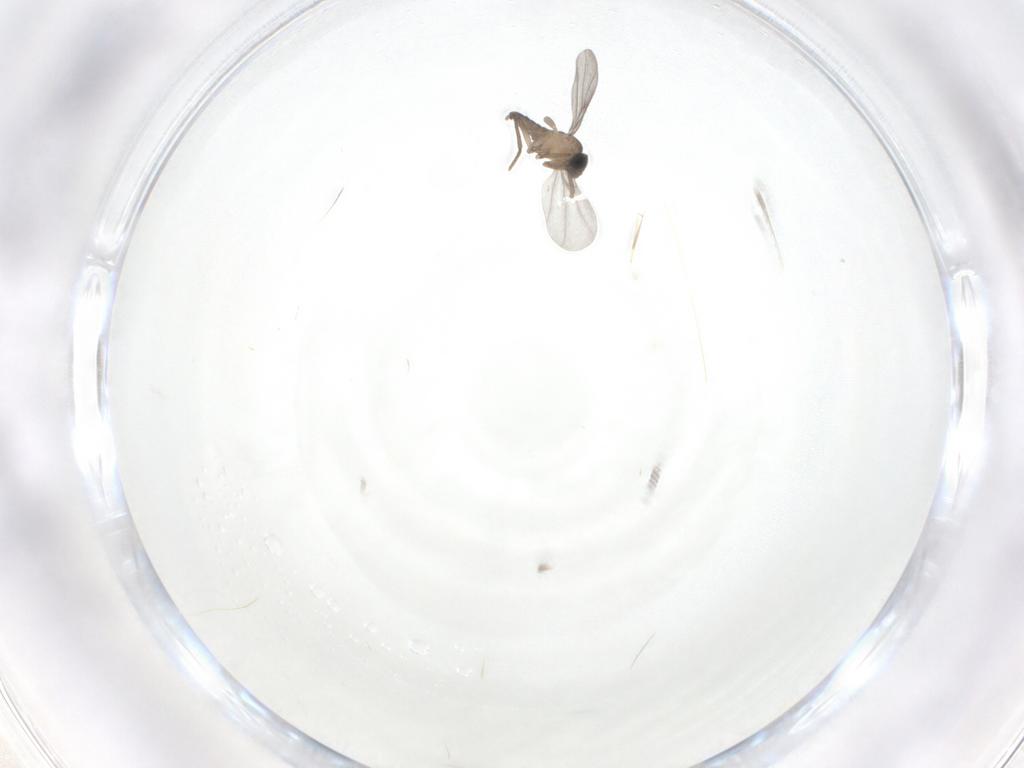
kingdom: Animalia
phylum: Arthropoda
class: Insecta
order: Diptera
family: Phoridae
